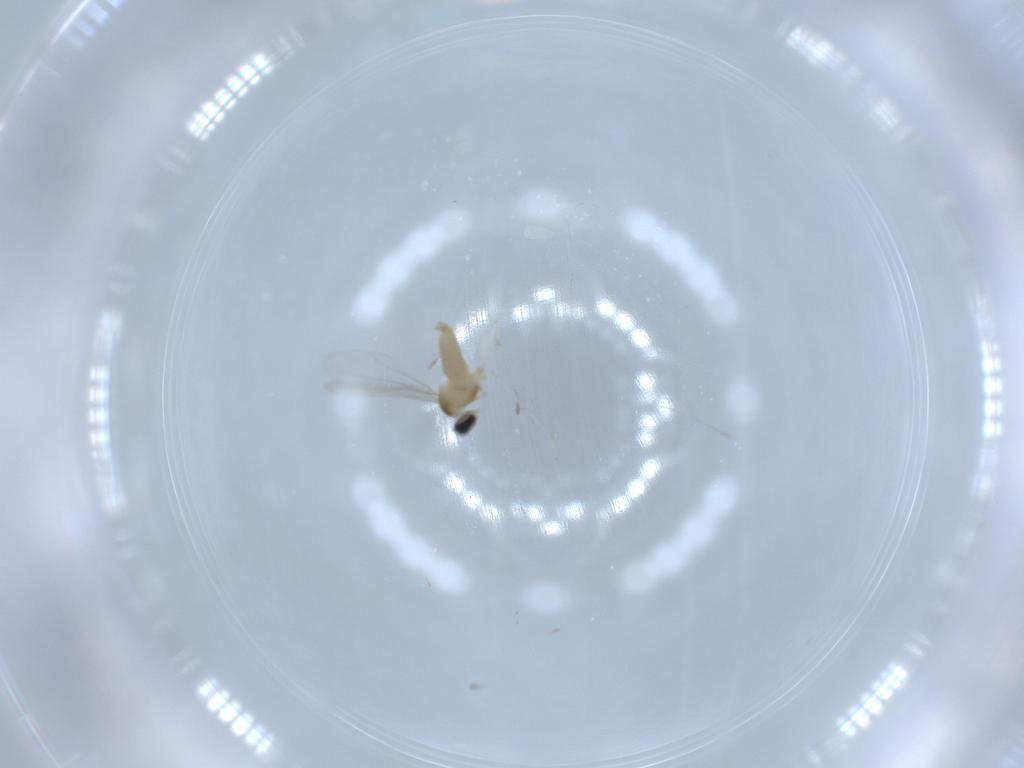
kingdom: Animalia
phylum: Arthropoda
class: Insecta
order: Diptera
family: Cecidomyiidae
